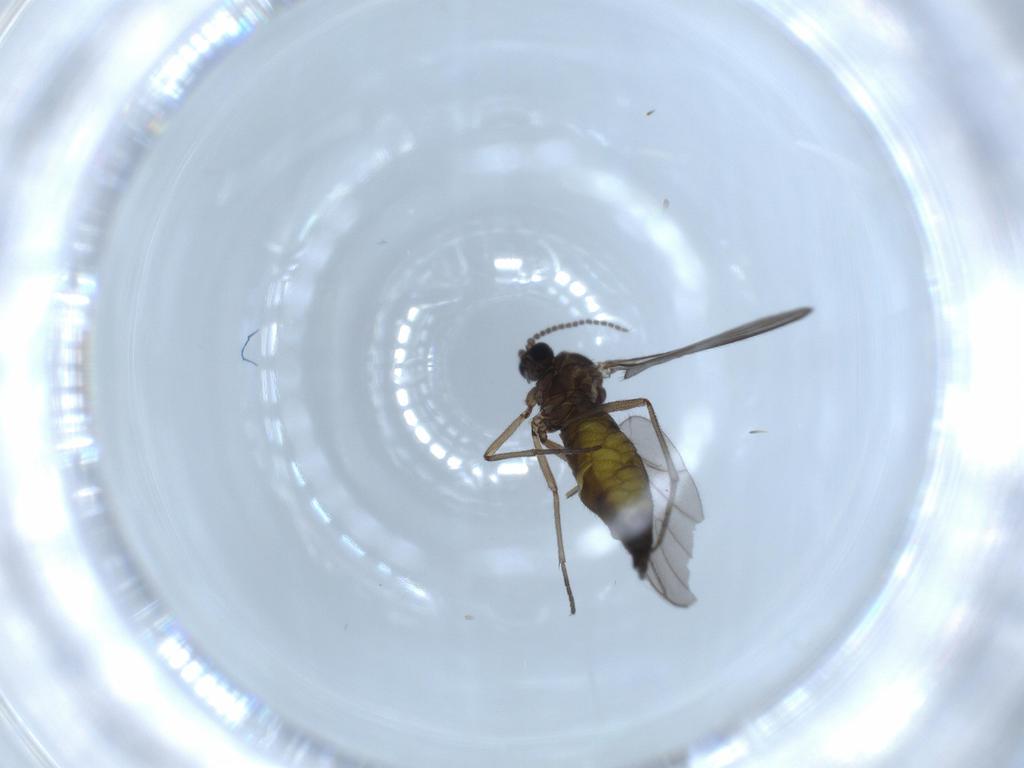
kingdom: Animalia
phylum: Arthropoda
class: Insecta
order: Diptera
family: Sciaridae
